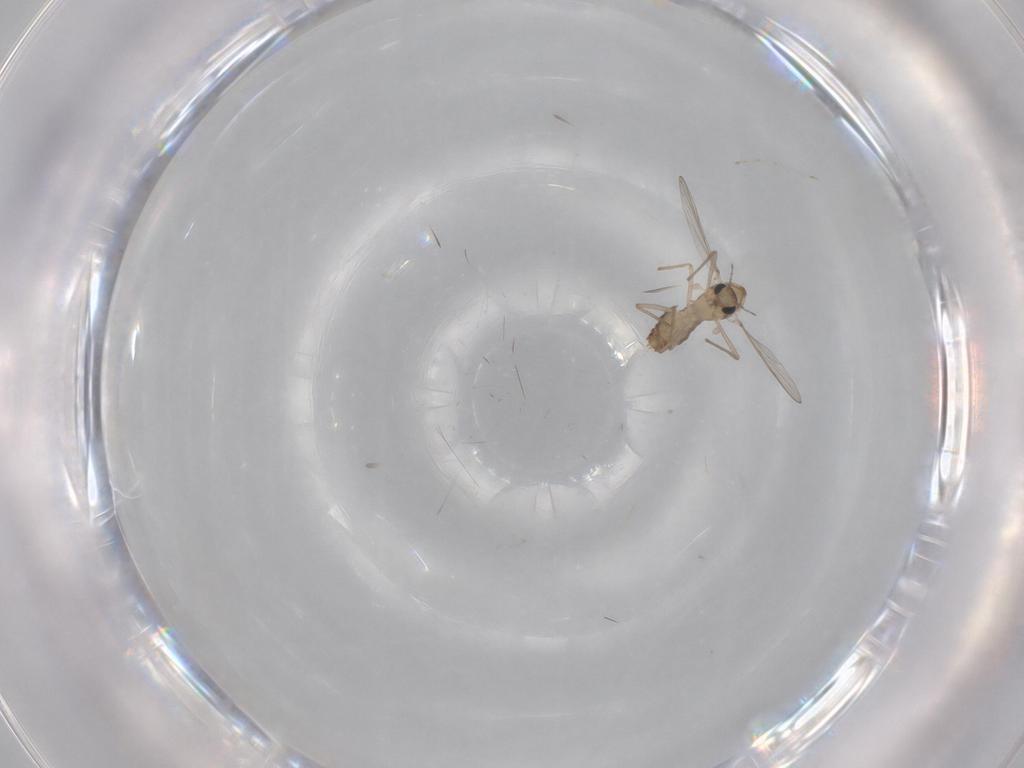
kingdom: Animalia
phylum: Arthropoda
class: Insecta
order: Diptera
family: Cecidomyiidae
